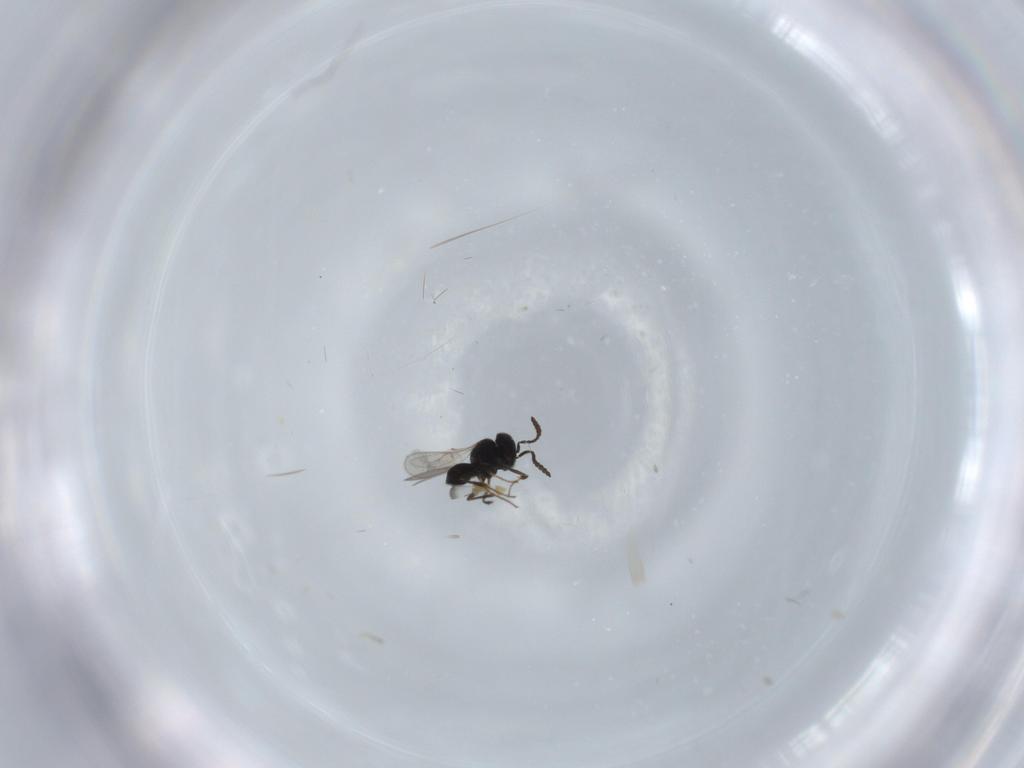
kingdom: Animalia
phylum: Arthropoda
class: Insecta
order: Hymenoptera
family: Scelionidae
